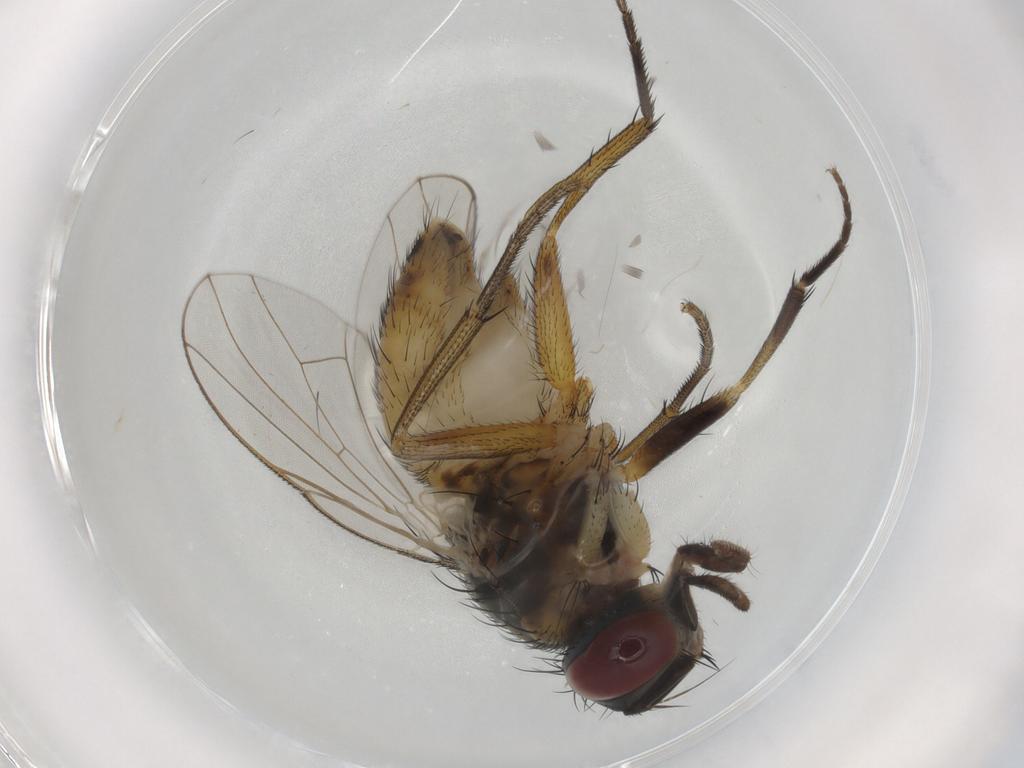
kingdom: Animalia
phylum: Arthropoda
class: Insecta
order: Diptera
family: Muscidae
